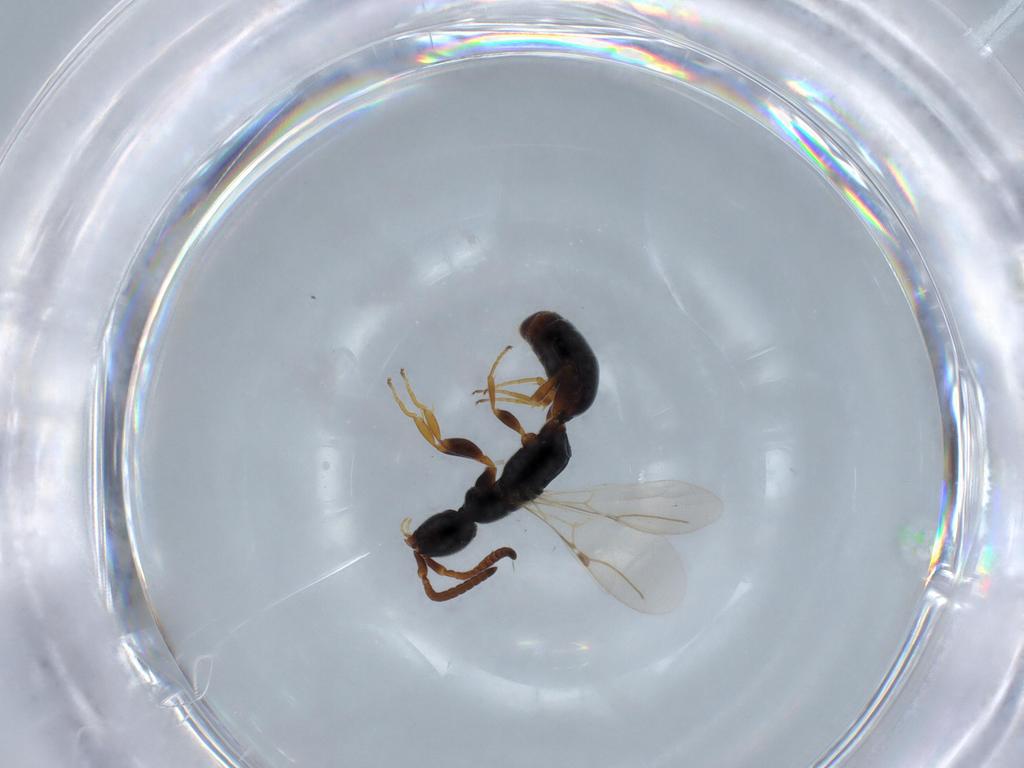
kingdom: Animalia
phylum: Arthropoda
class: Insecta
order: Hymenoptera
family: Bethylidae
